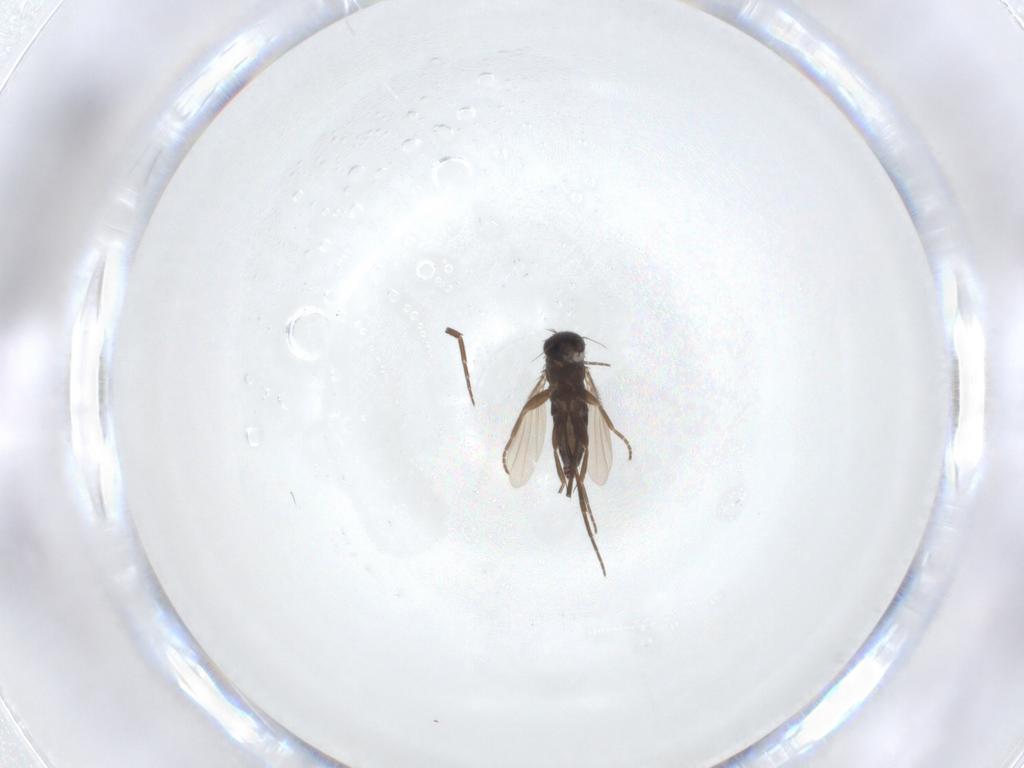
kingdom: Animalia
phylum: Arthropoda
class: Insecta
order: Diptera
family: Phoridae
